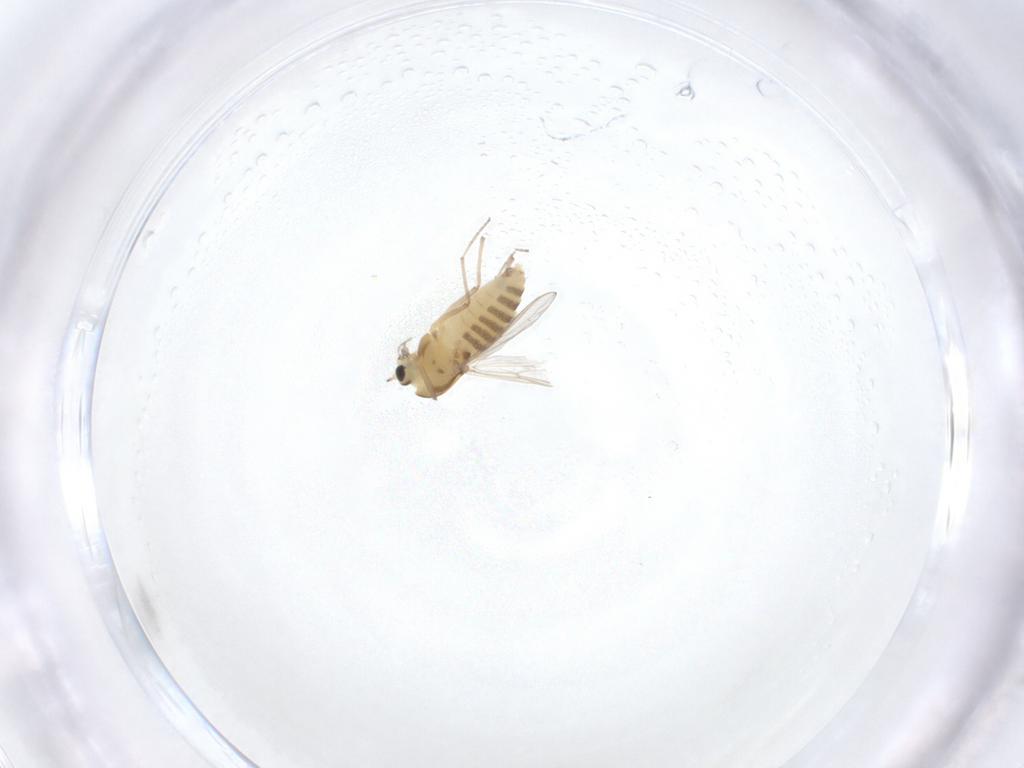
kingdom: Animalia
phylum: Arthropoda
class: Insecta
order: Diptera
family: Chironomidae
